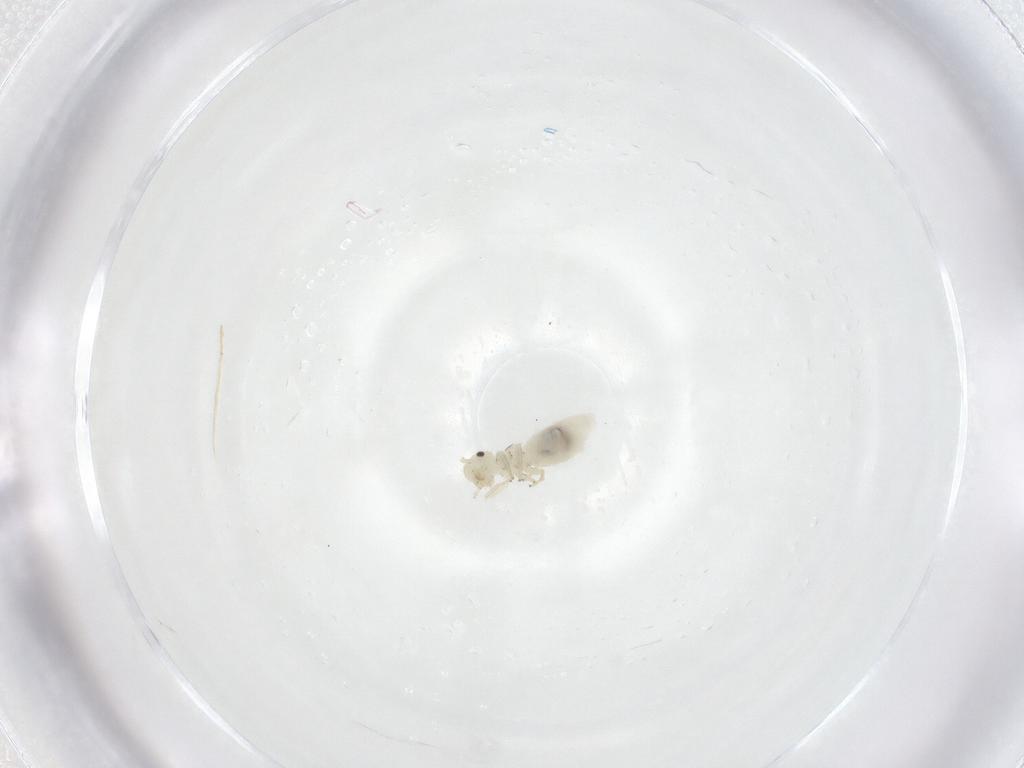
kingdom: Animalia
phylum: Arthropoda
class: Insecta
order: Psocodea
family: Caeciliusidae
